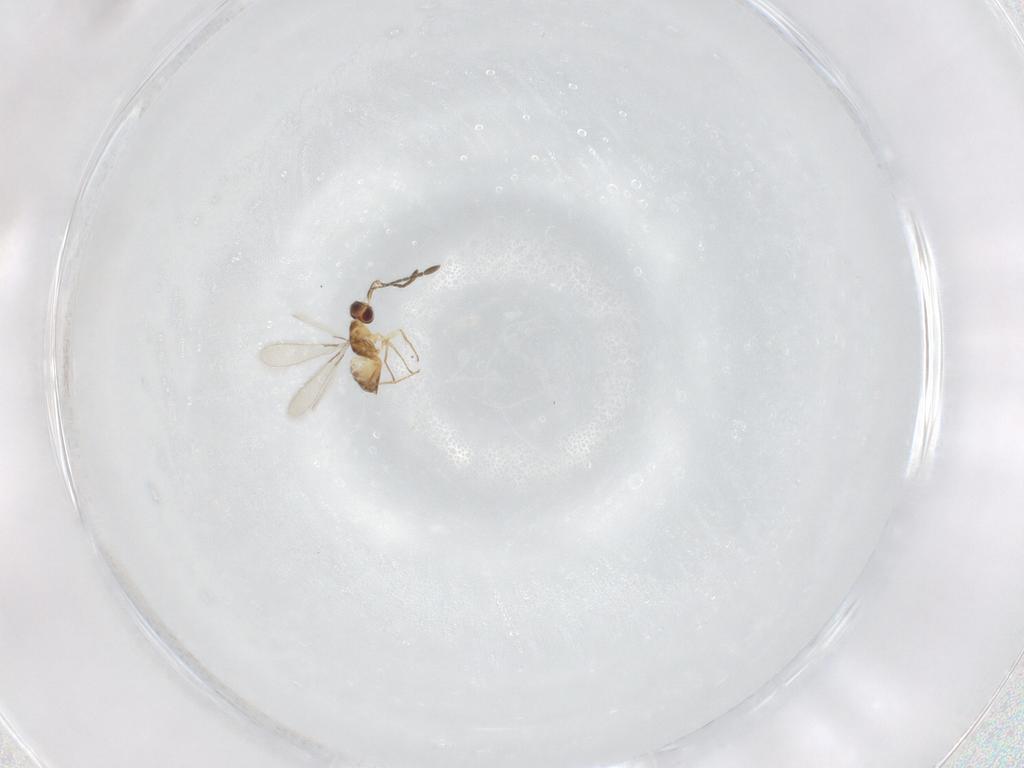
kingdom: Animalia
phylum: Arthropoda
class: Insecta
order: Hymenoptera
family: Mymaridae
